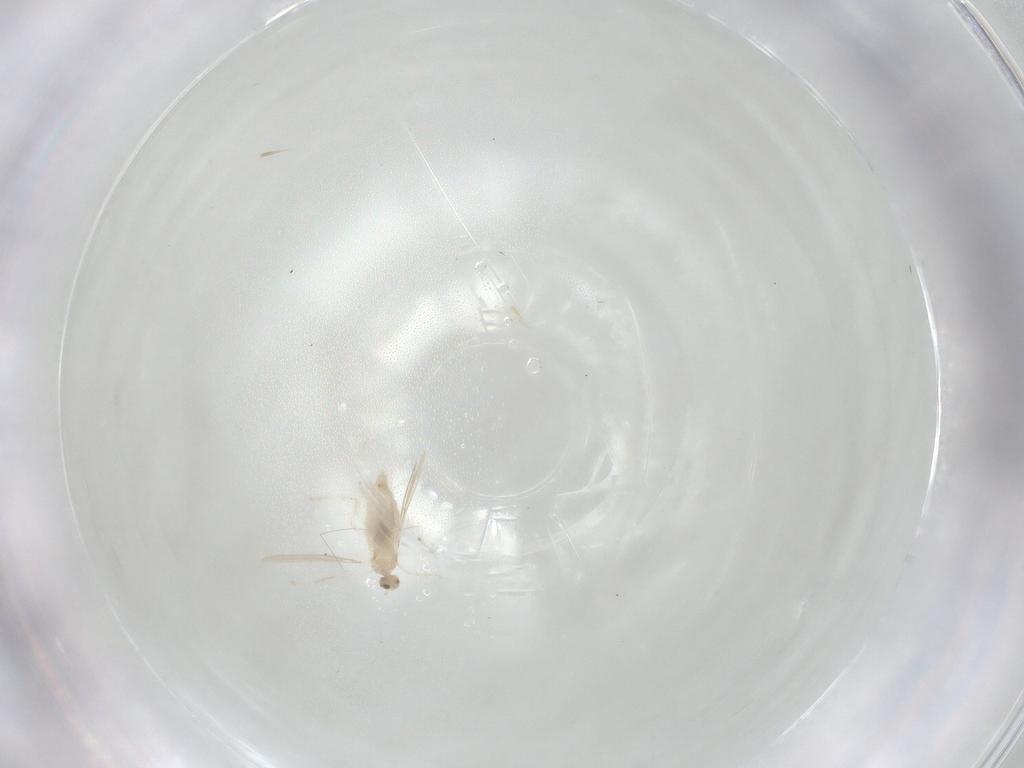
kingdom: Animalia
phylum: Arthropoda
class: Insecta
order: Diptera
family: Cecidomyiidae
